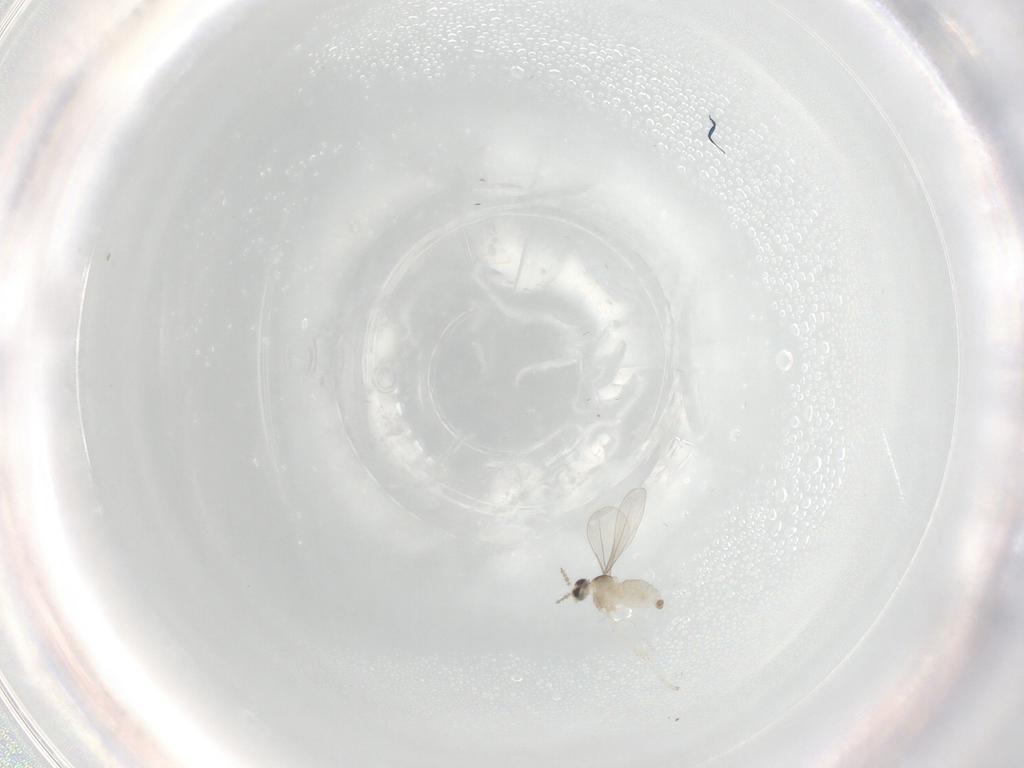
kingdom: Animalia
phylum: Arthropoda
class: Insecta
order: Diptera
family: Cecidomyiidae
